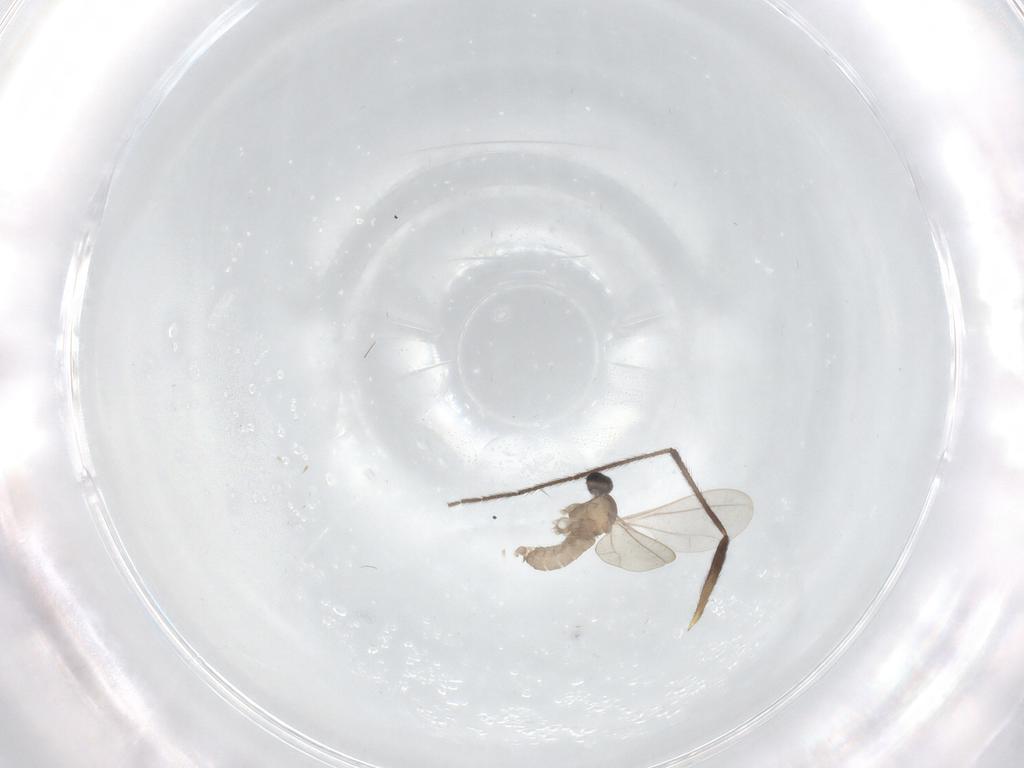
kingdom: Animalia
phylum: Arthropoda
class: Insecta
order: Diptera
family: Cecidomyiidae
